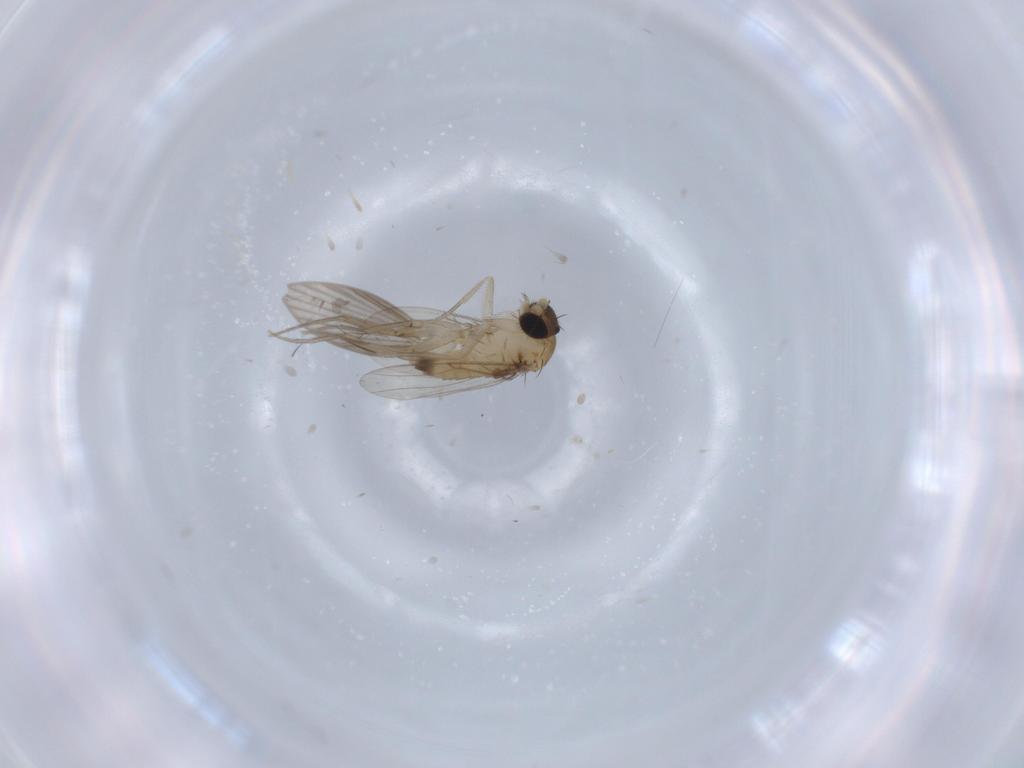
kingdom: Animalia
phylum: Arthropoda
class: Insecta
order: Diptera
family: Phoridae
